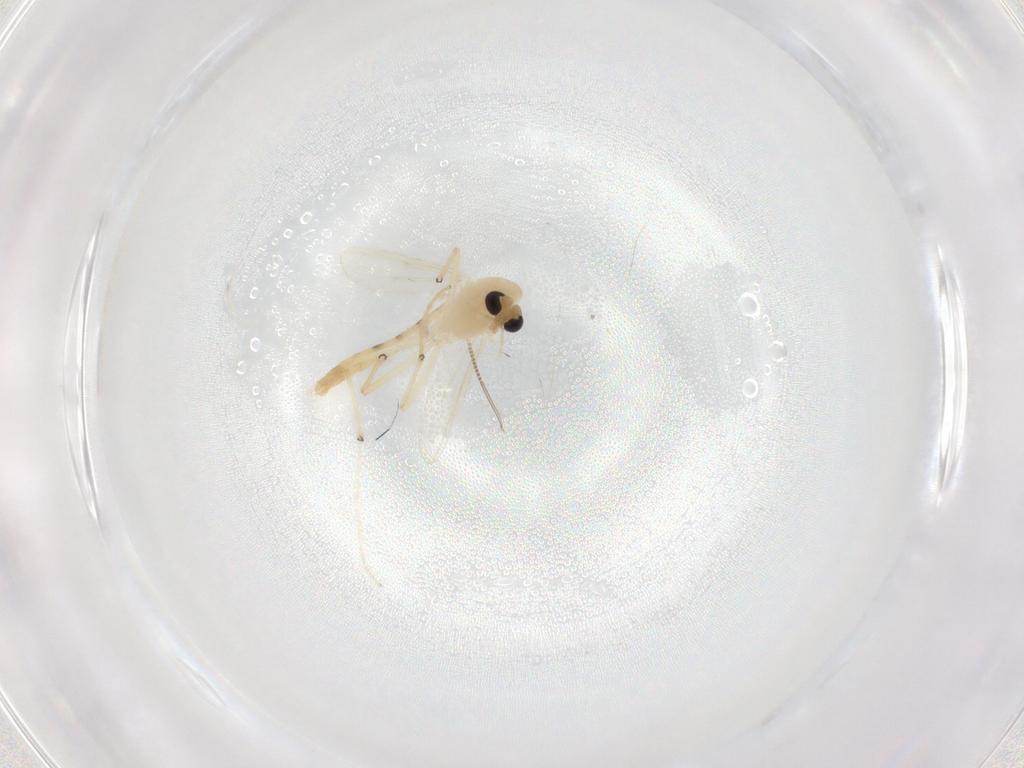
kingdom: Animalia
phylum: Arthropoda
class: Insecta
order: Diptera
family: Chironomidae
